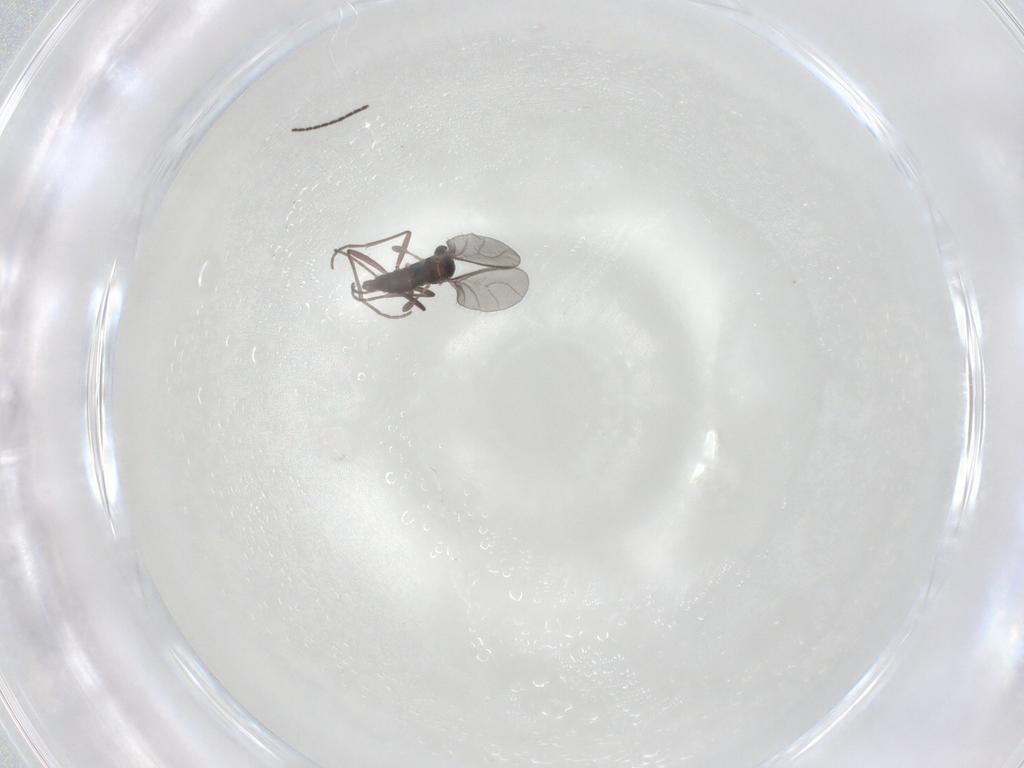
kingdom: Animalia
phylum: Arthropoda
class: Insecta
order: Diptera
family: Sciaridae
